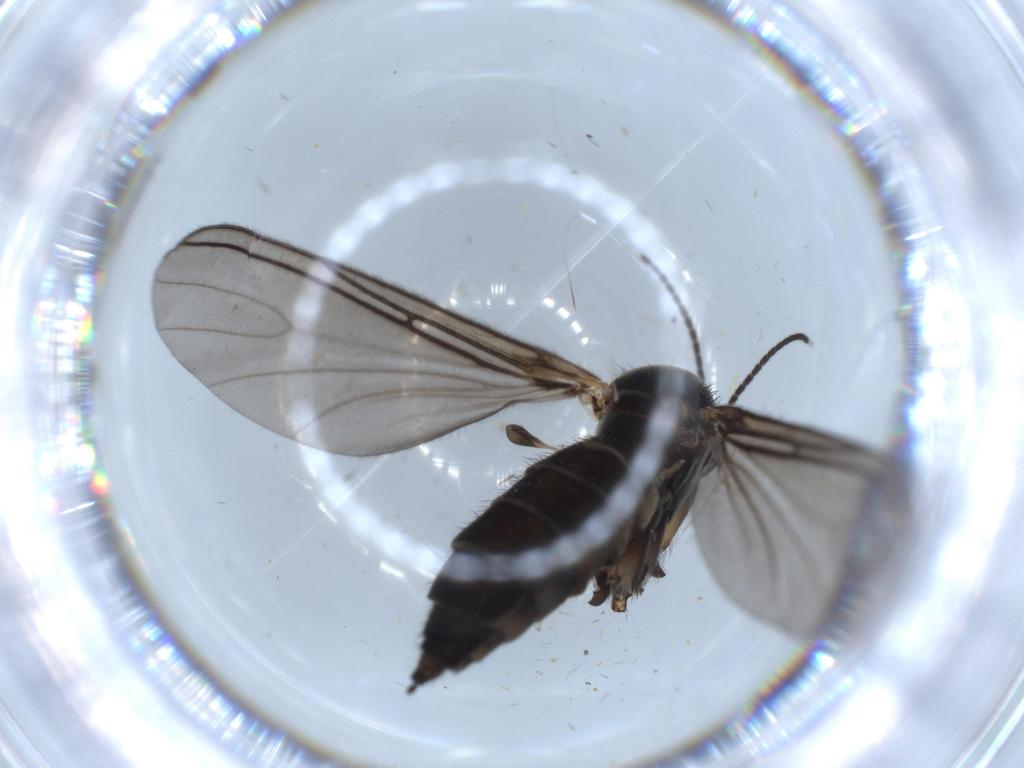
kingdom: Animalia
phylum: Arthropoda
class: Insecta
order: Diptera
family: Sciaridae
